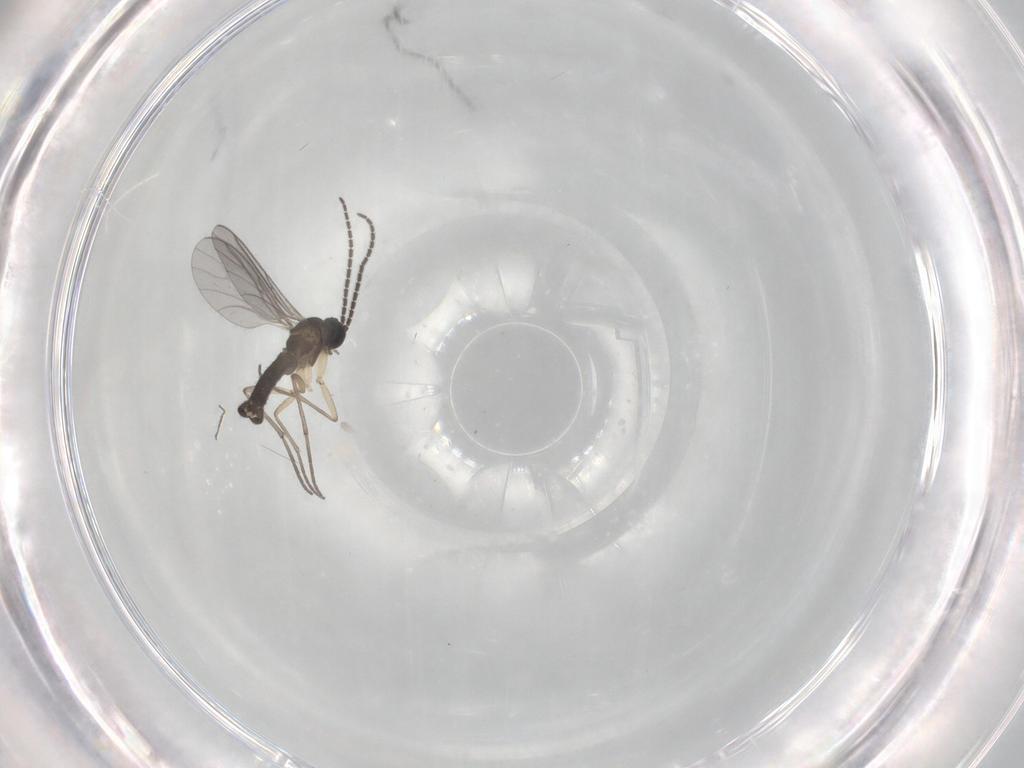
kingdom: Animalia
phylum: Arthropoda
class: Insecta
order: Diptera
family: Sciaridae
